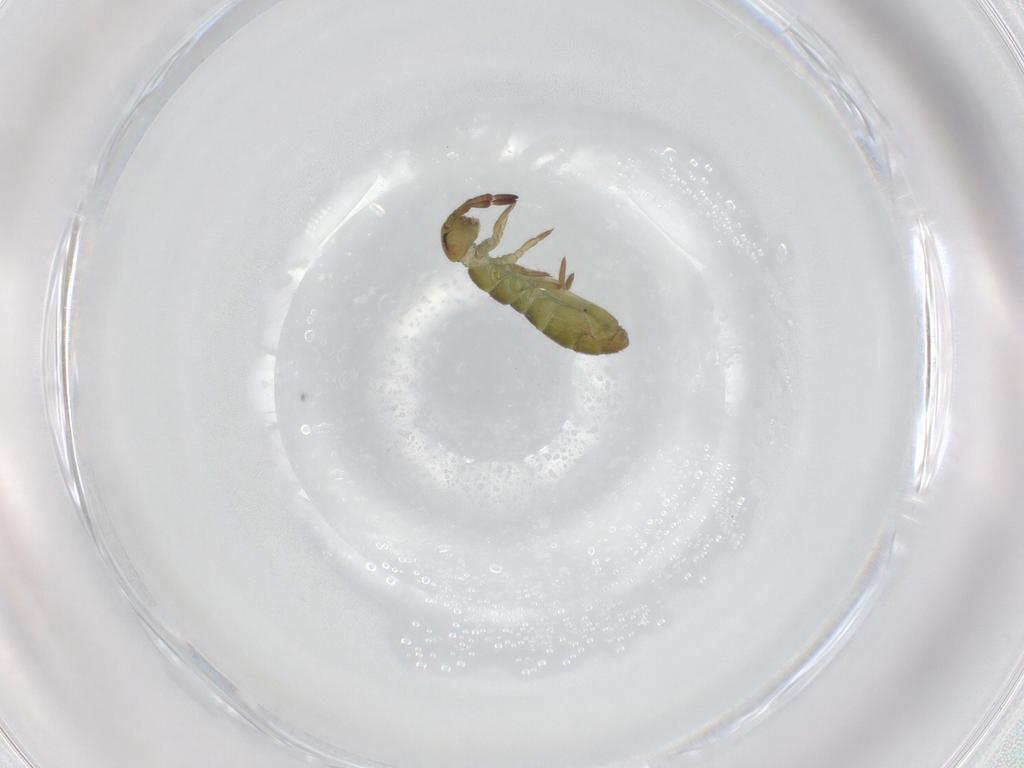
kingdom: Animalia
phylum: Arthropoda
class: Collembola
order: Entomobryomorpha
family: Isotomidae
